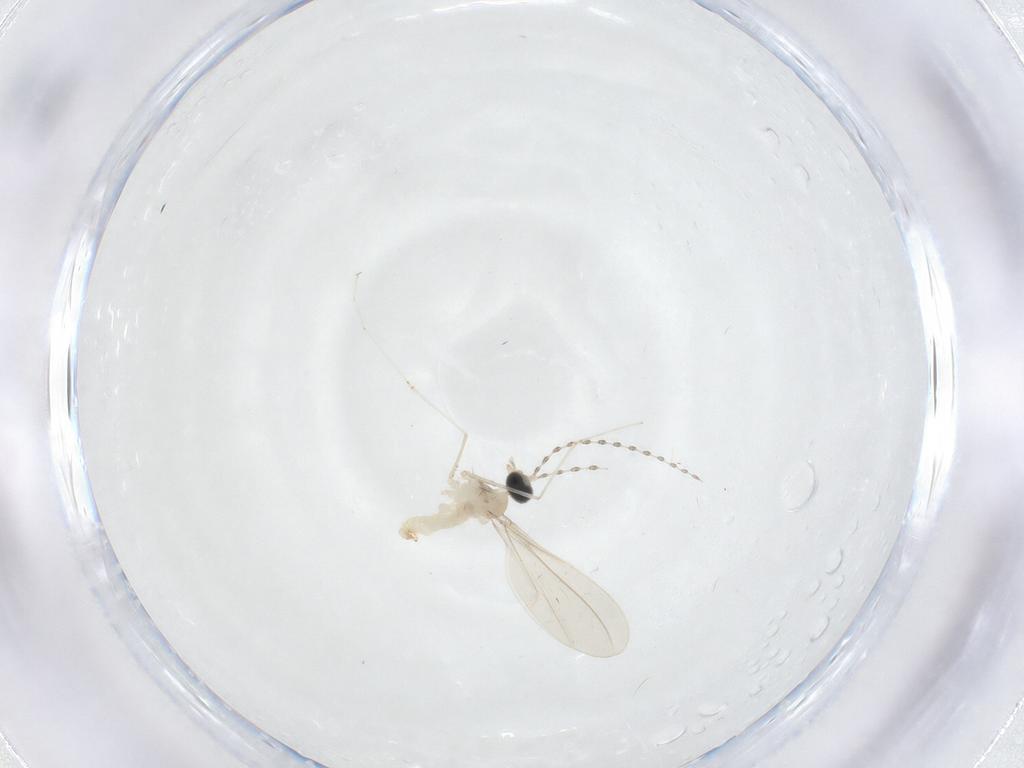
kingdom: Animalia
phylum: Arthropoda
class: Insecta
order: Diptera
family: Cecidomyiidae
